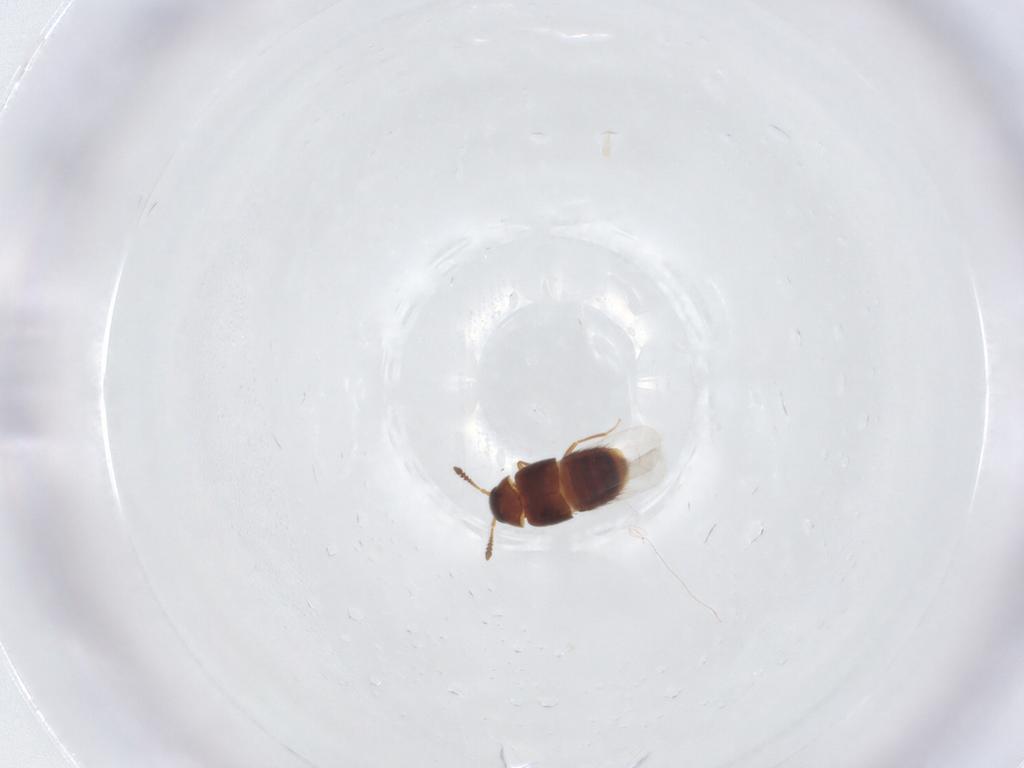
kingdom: Animalia
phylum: Arthropoda
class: Insecta
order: Coleoptera
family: Staphylinidae
